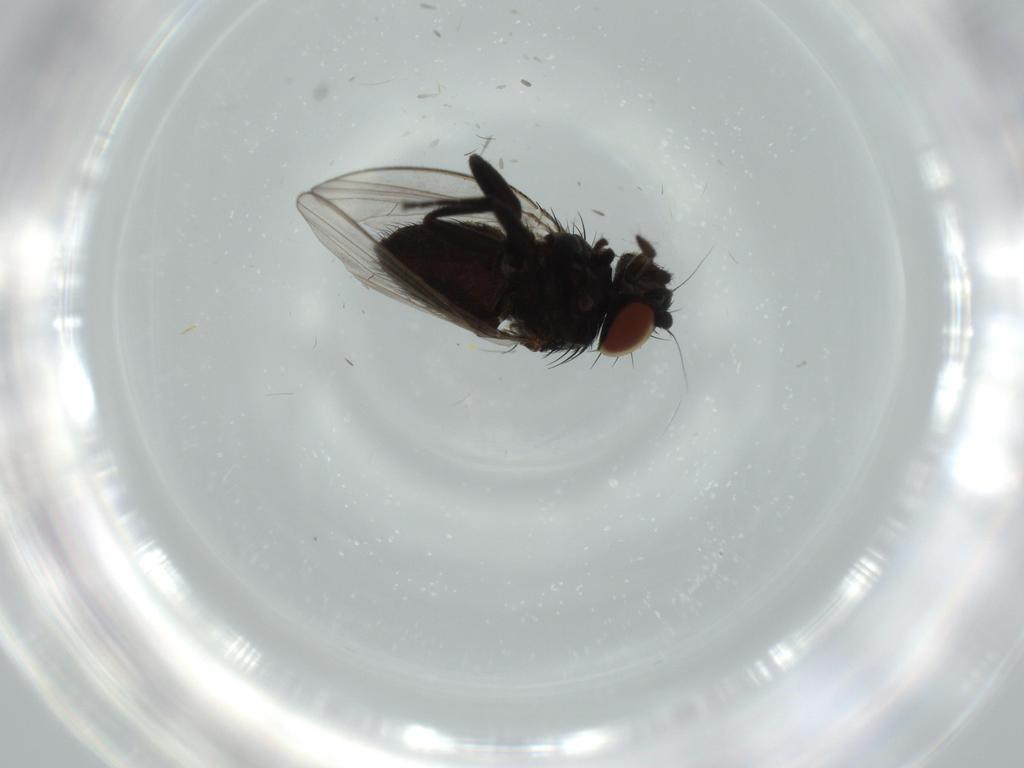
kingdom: Animalia
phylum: Arthropoda
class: Insecta
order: Diptera
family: Milichiidae
